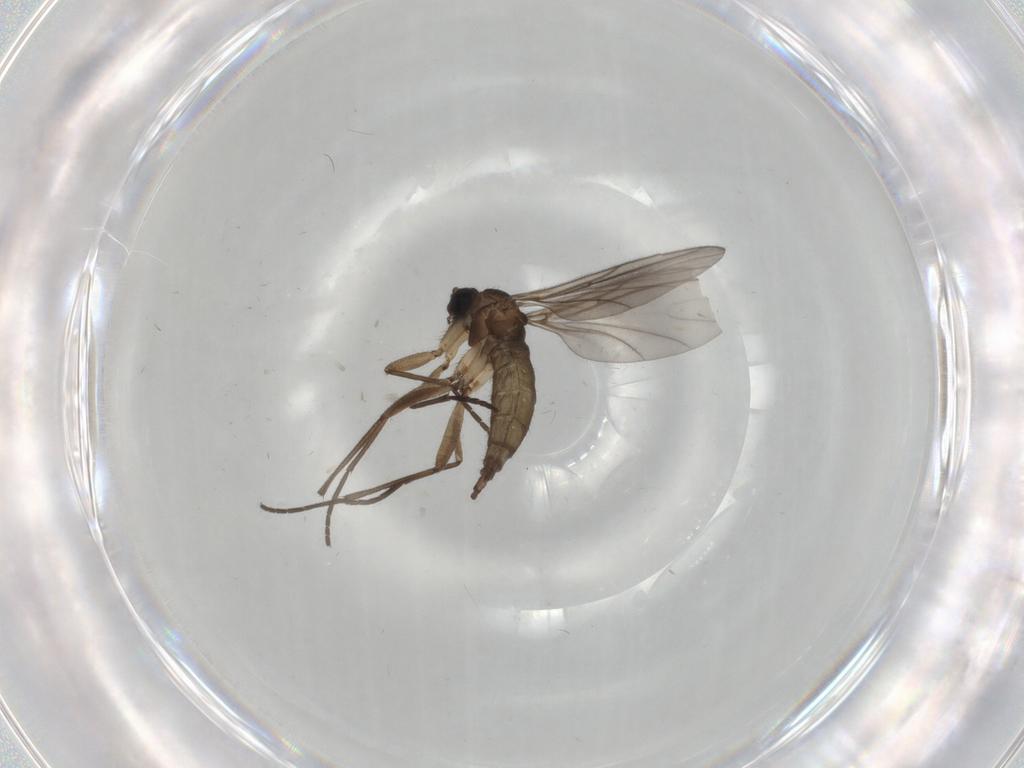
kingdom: Animalia
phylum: Arthropoda
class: Insecta
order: Diptera
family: Sciaridae
